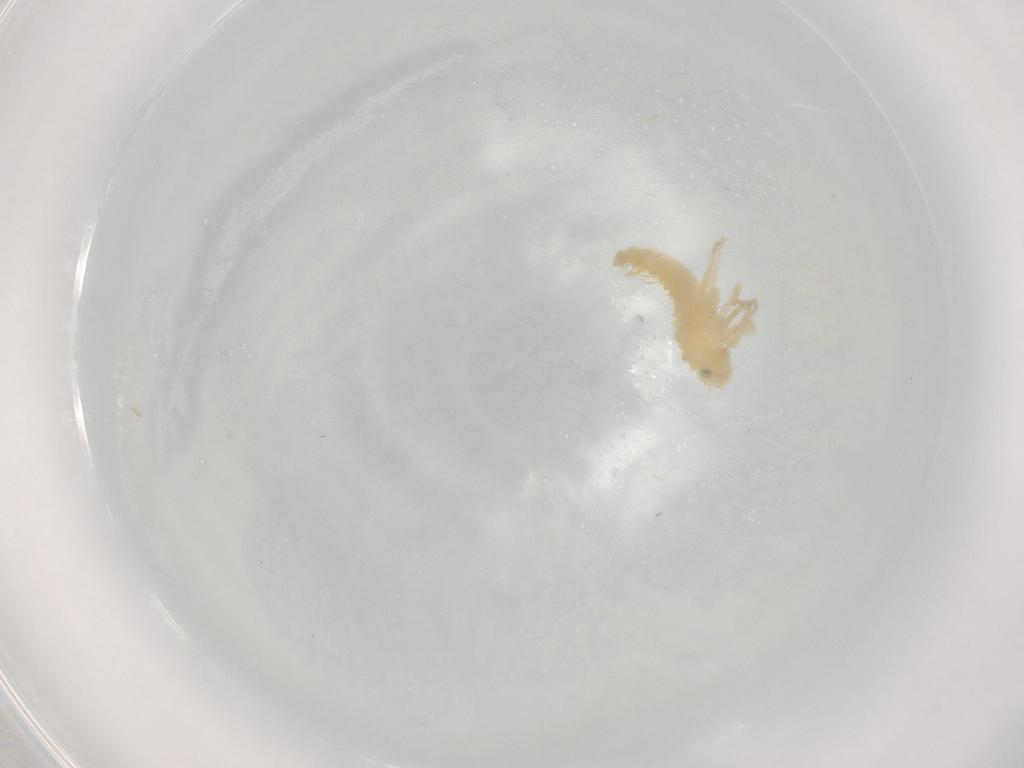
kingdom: Animalia
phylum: Arthropoda
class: Insecta
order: Hemiptera
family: Cicadellidae
